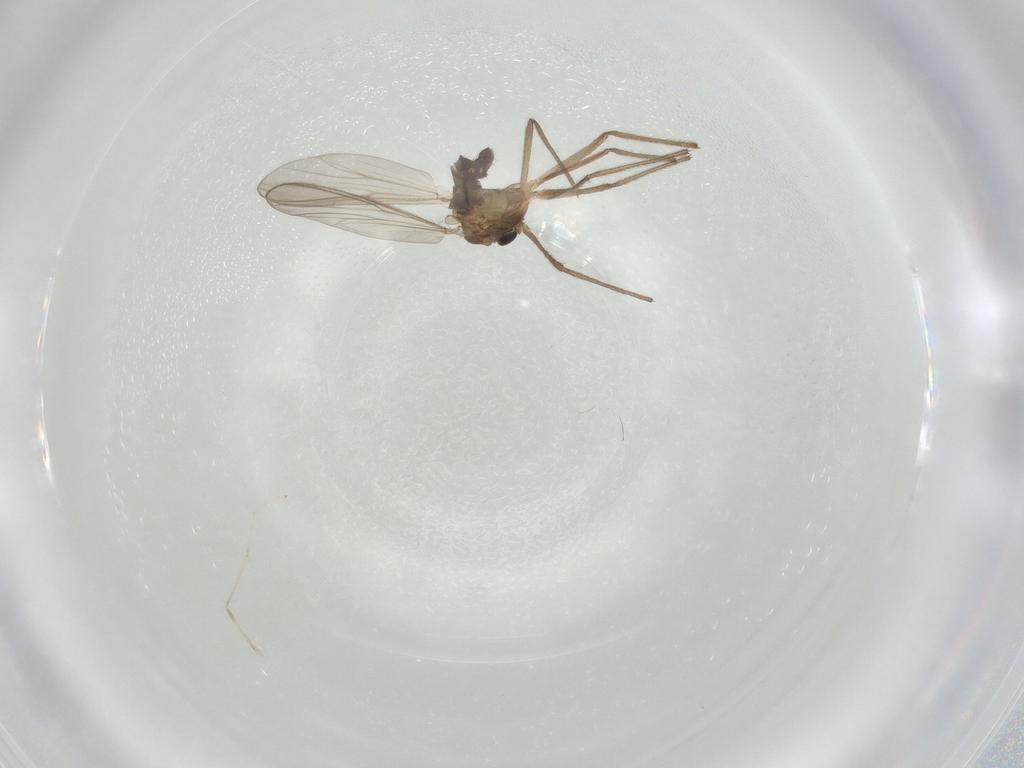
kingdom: Animalia
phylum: Arthropoda
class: Insecta
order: Diptera
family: Chironomidae
